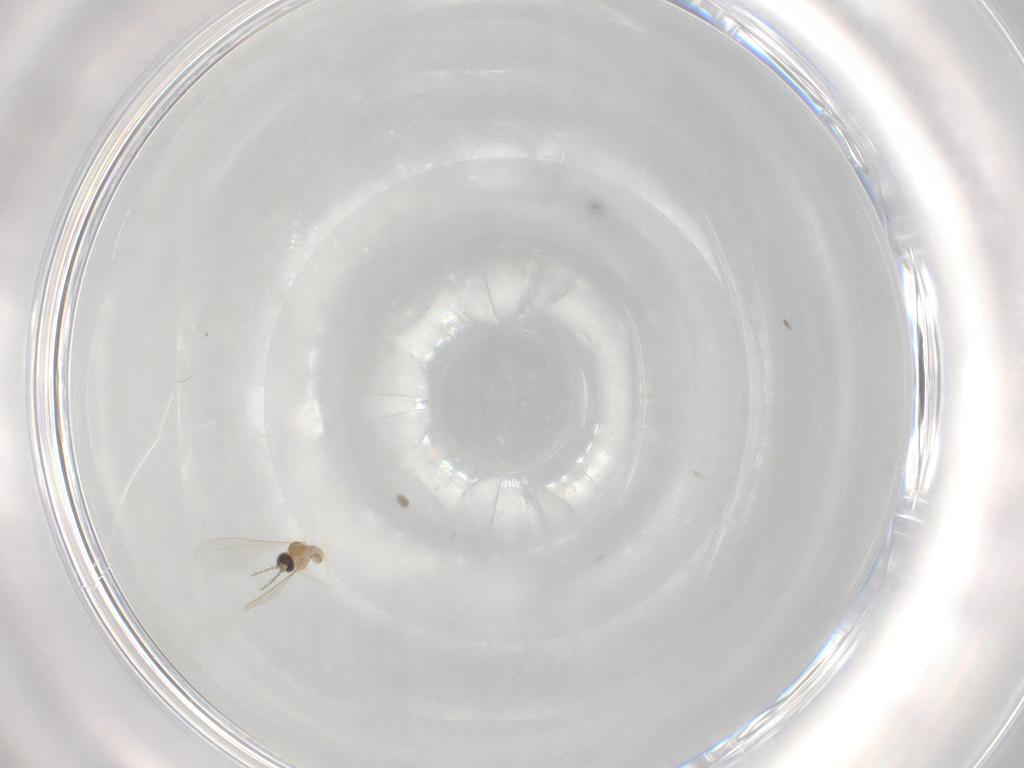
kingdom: Animalia
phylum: Arthropoda
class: Insecta
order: Diptera
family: Cecidomyiidae
